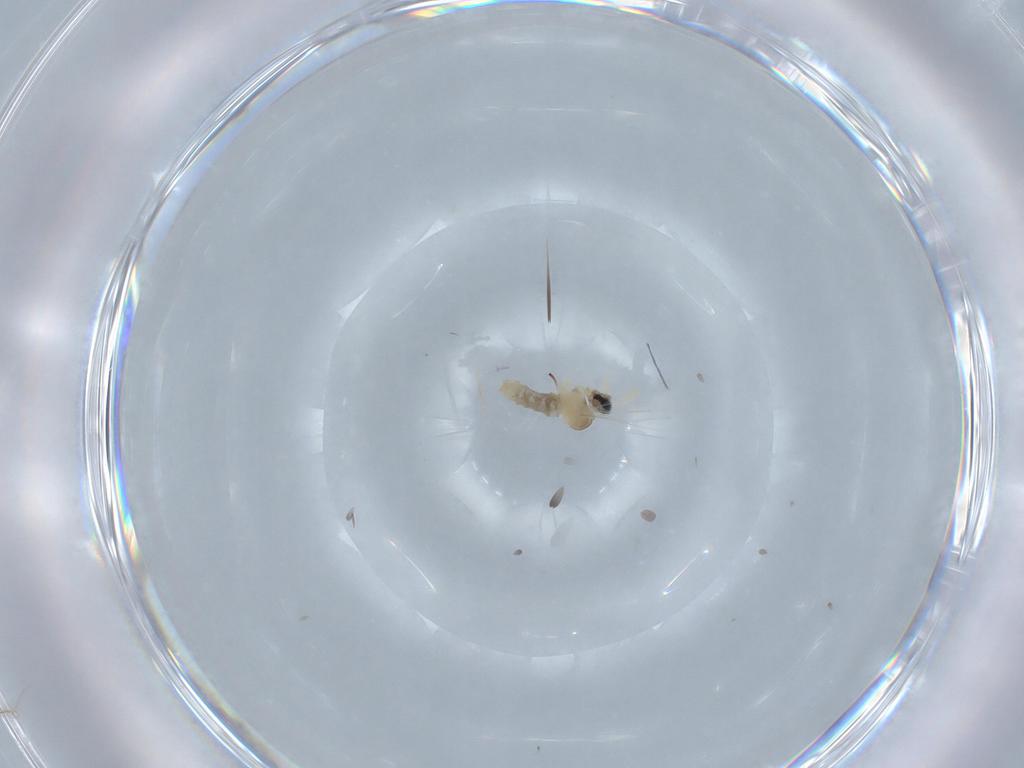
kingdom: Animalia
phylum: Arthropoda
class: Insecta
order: Diptera
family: Cecidomyiidae
